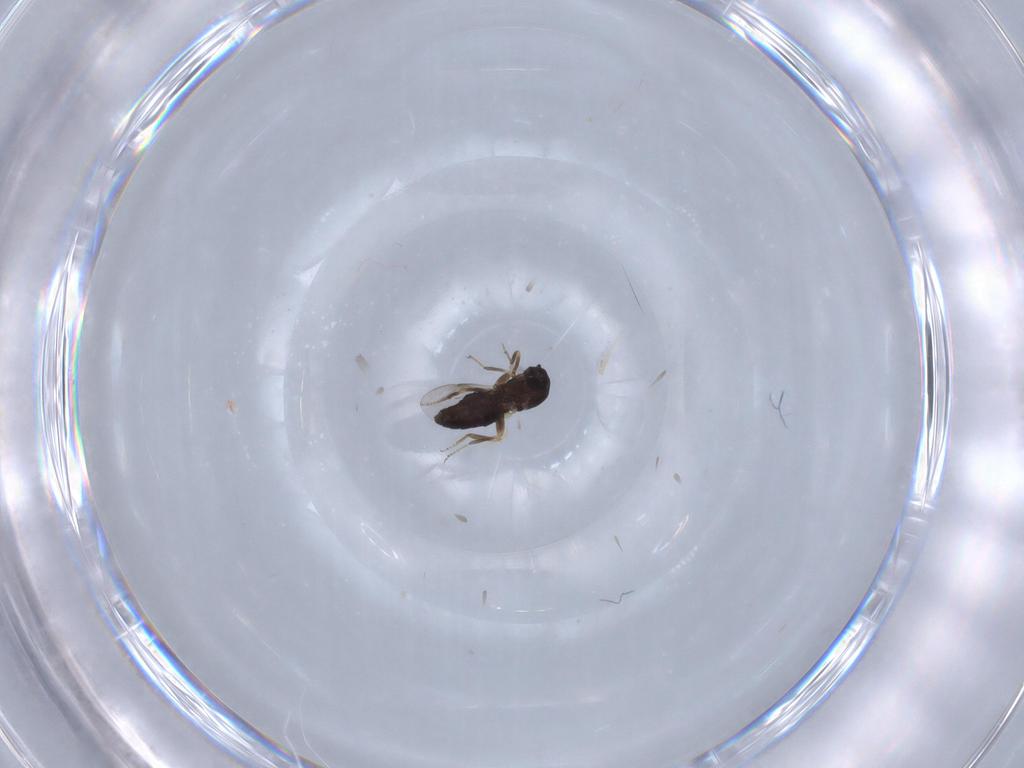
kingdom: Animalia
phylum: Arthropoda
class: Insecta
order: Diptera
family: Ceratopogonidae
